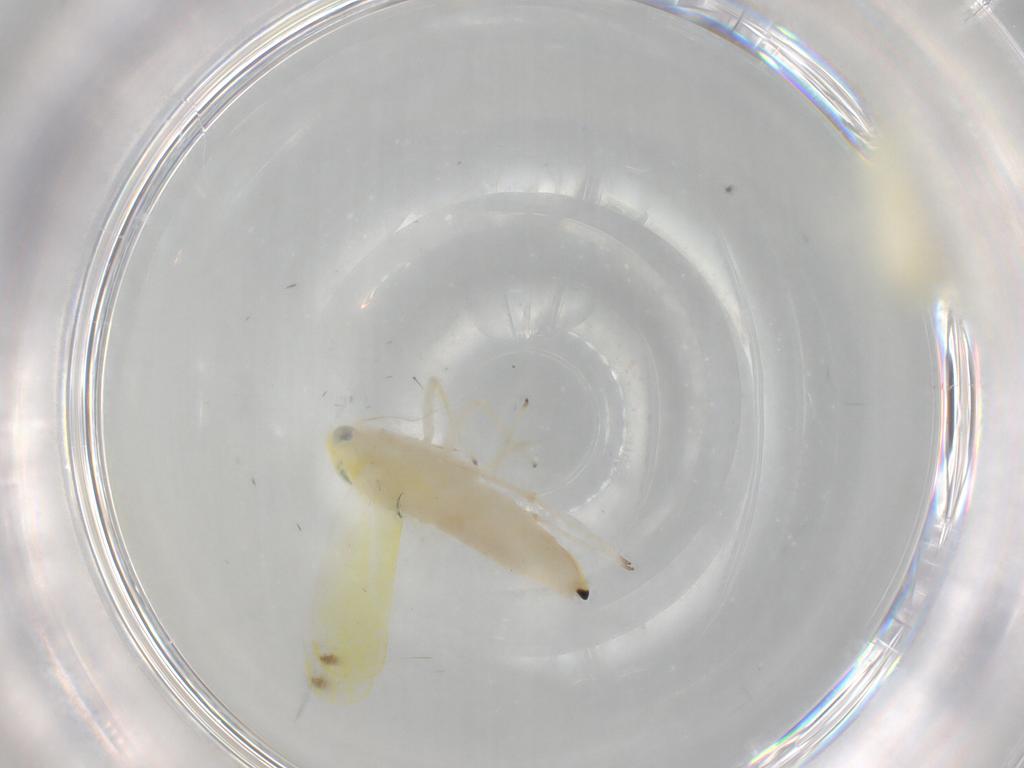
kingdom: Animalia
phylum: Arthropoda
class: Insecta
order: Hemiptera
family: Cicadellidae
